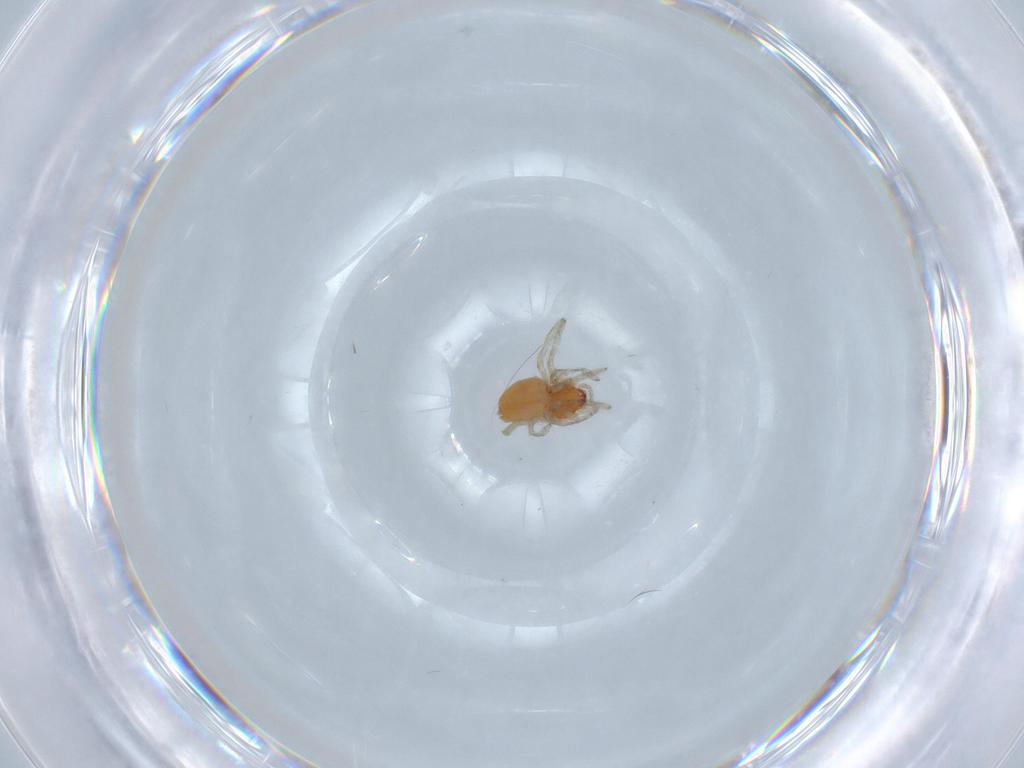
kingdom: Animalia
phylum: Arthropoda
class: Arachnida
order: Araneae
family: Dictynidae
